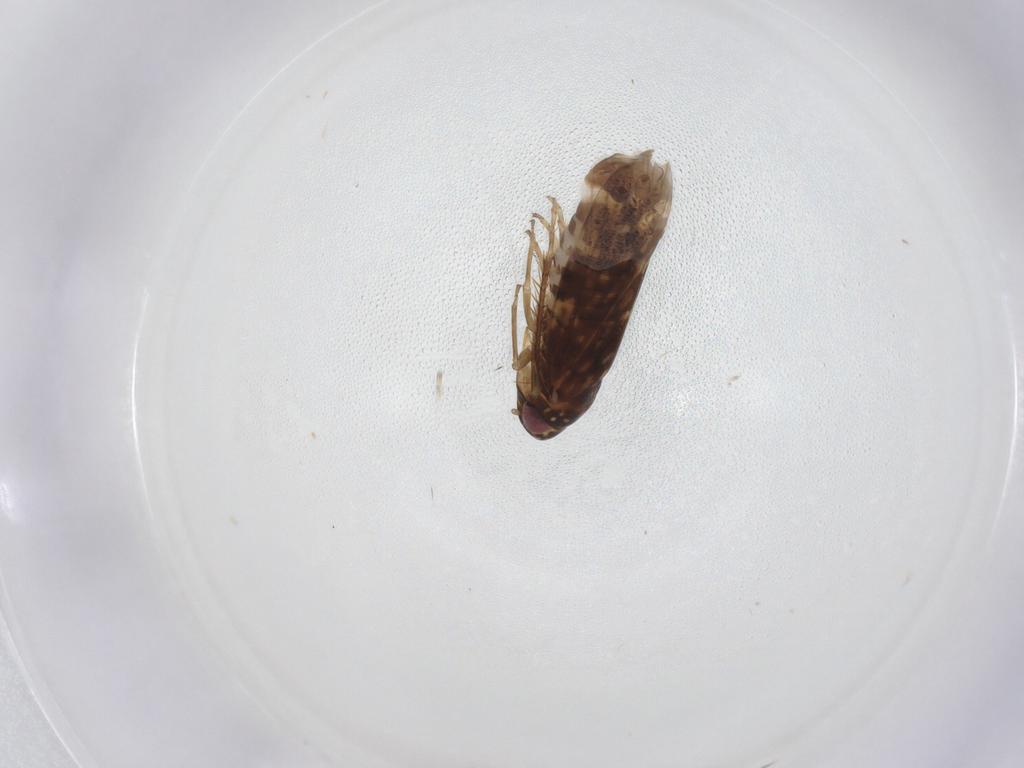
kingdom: Animalia
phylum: Arthropoda
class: Insecta
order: Hemiptera
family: Cicadellidae
